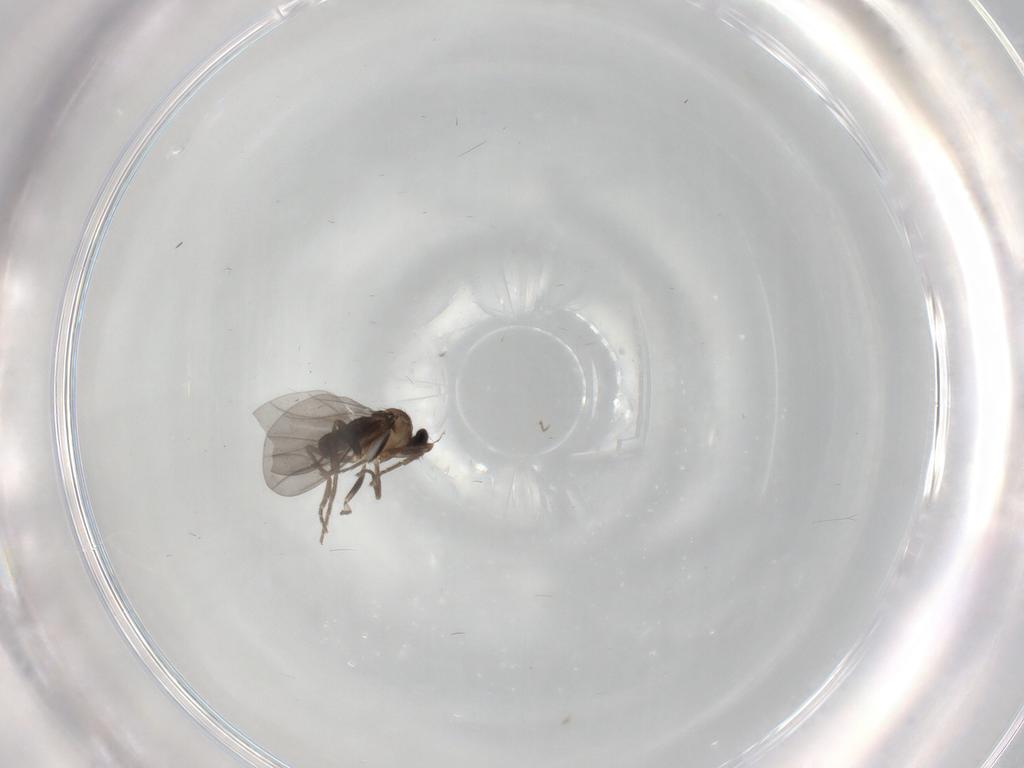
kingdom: Animalia
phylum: Arthropoda
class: Insecta
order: Diptera
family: Phoridae
